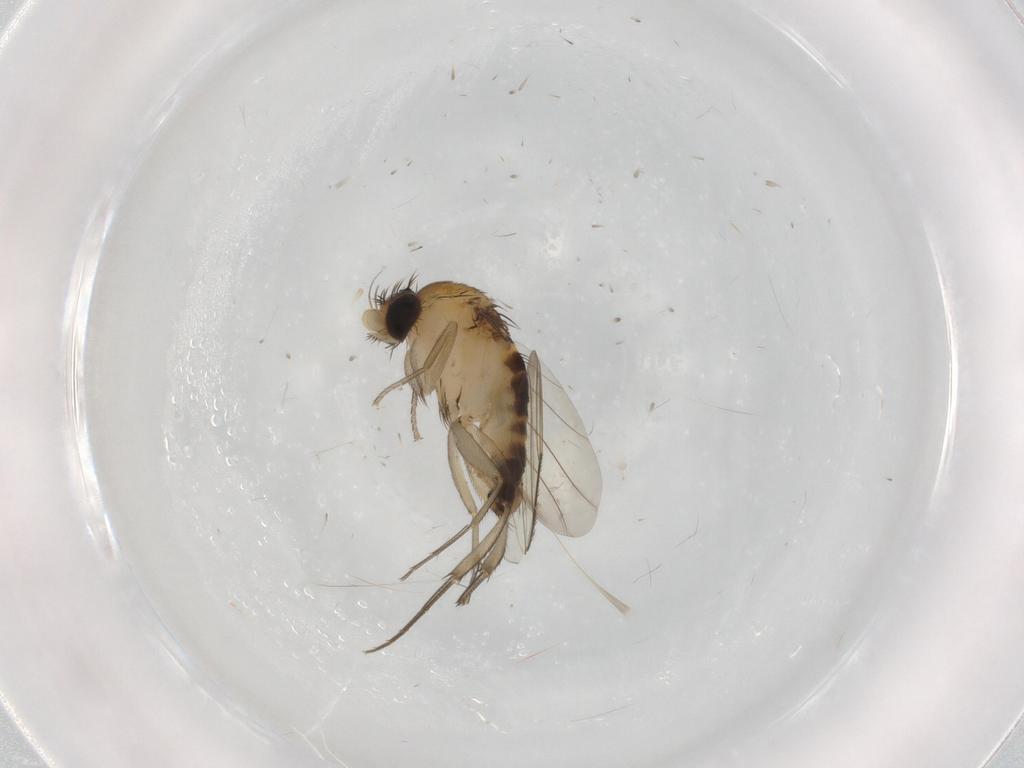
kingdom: Animalia
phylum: Arthropoda
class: Insecta
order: Diptera
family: Phoridae
